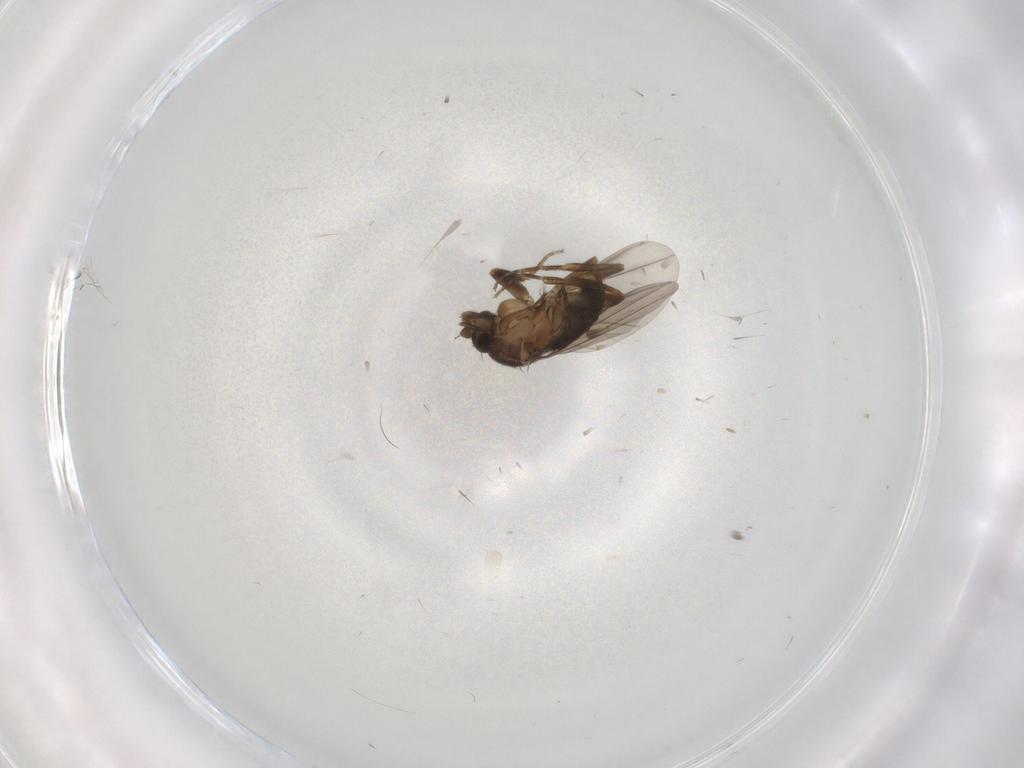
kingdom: Animalia
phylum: Arthropoda
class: Insecta
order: Diptera
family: Phoridae
